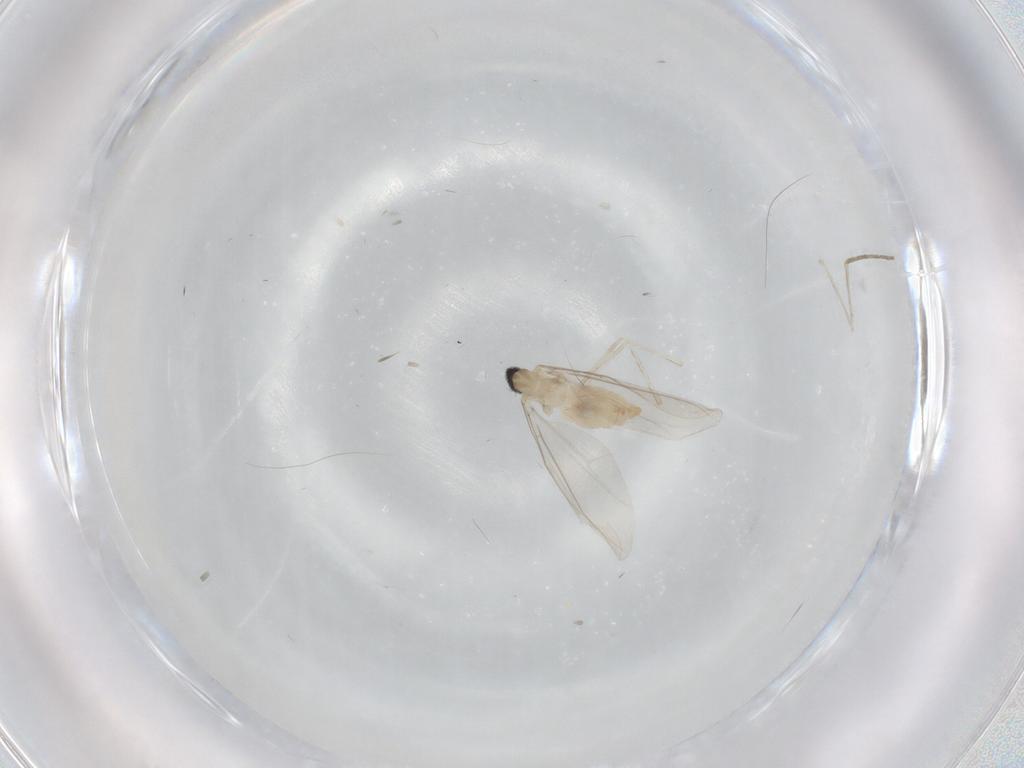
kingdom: Animalia
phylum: Arthropoda
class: Insecta
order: Diptera
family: Cecidomyiidae
